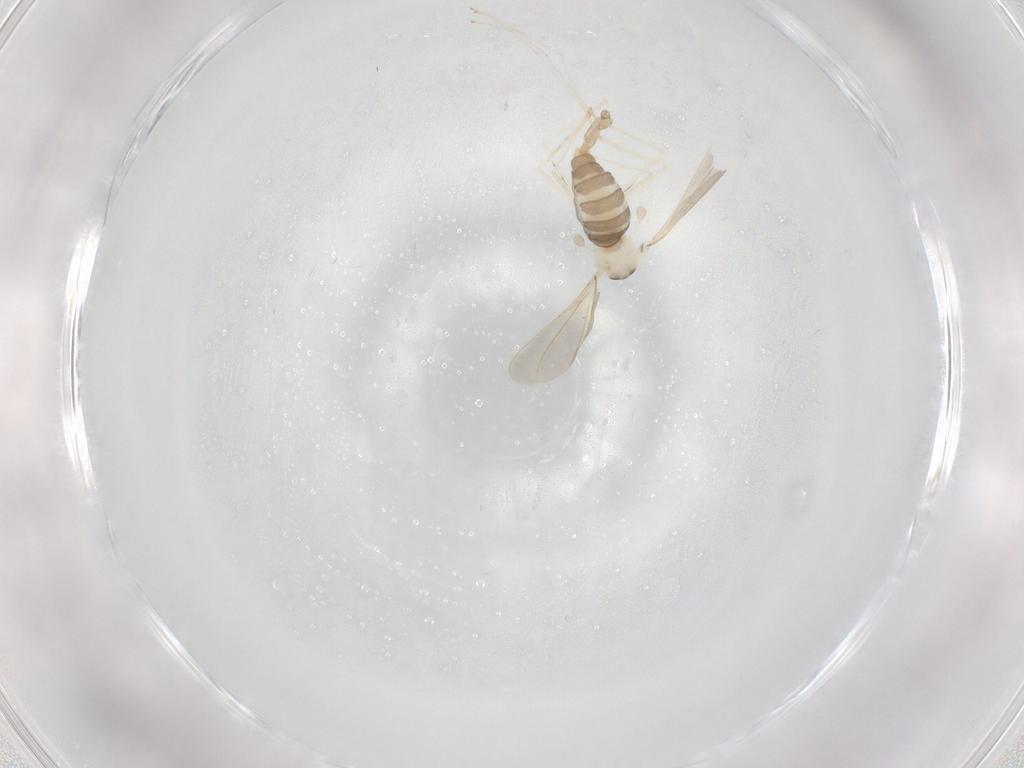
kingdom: Animalia
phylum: Arthropoda
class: Insecta
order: Diptera
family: Cecidomyiidae
